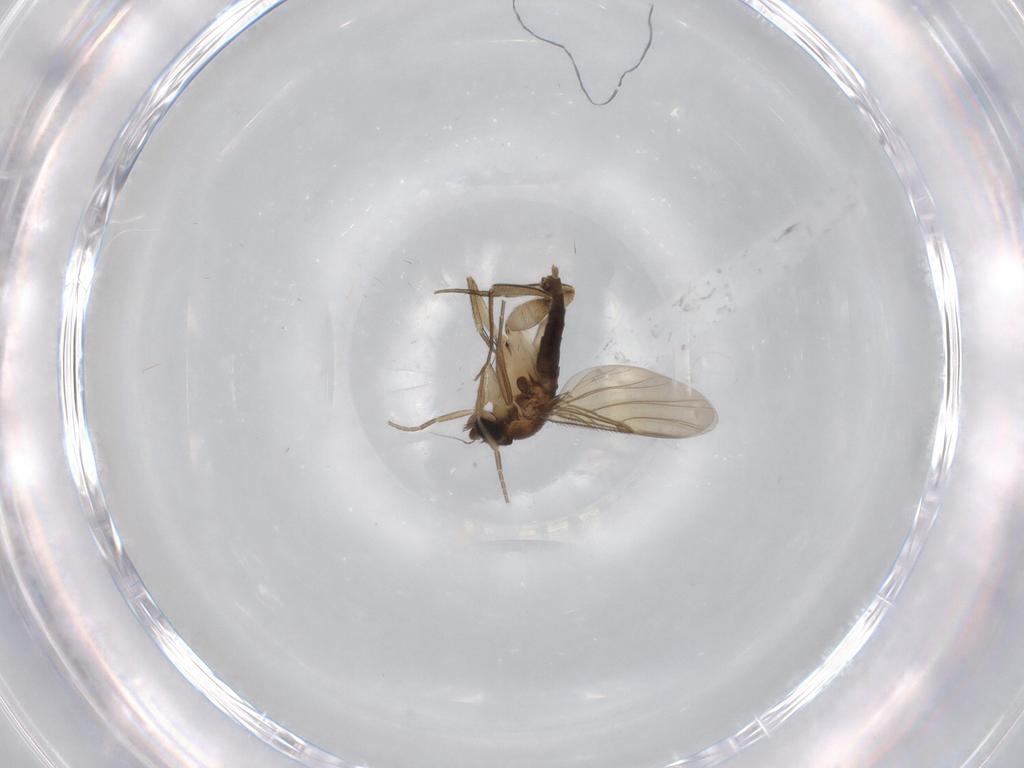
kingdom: Animalia
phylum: Arthropoda
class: Insecta
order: Diptera
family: Phoridae
